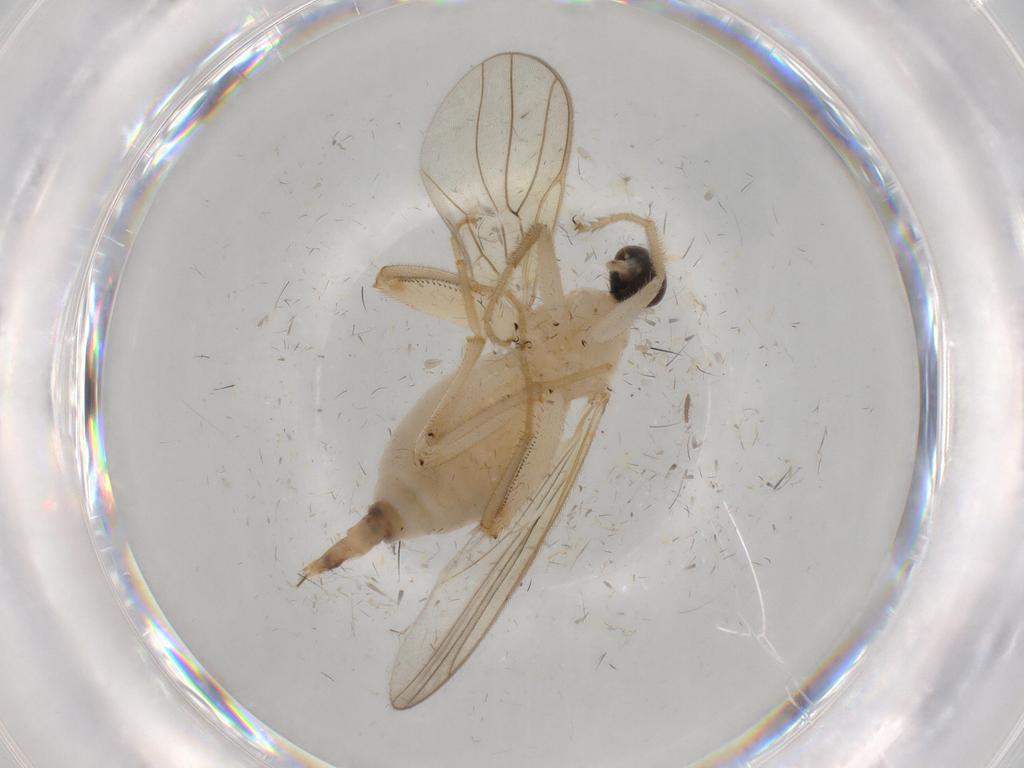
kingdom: Animalia
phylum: Arthropoda
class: Insecta
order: Diptera
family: Hybotidae
